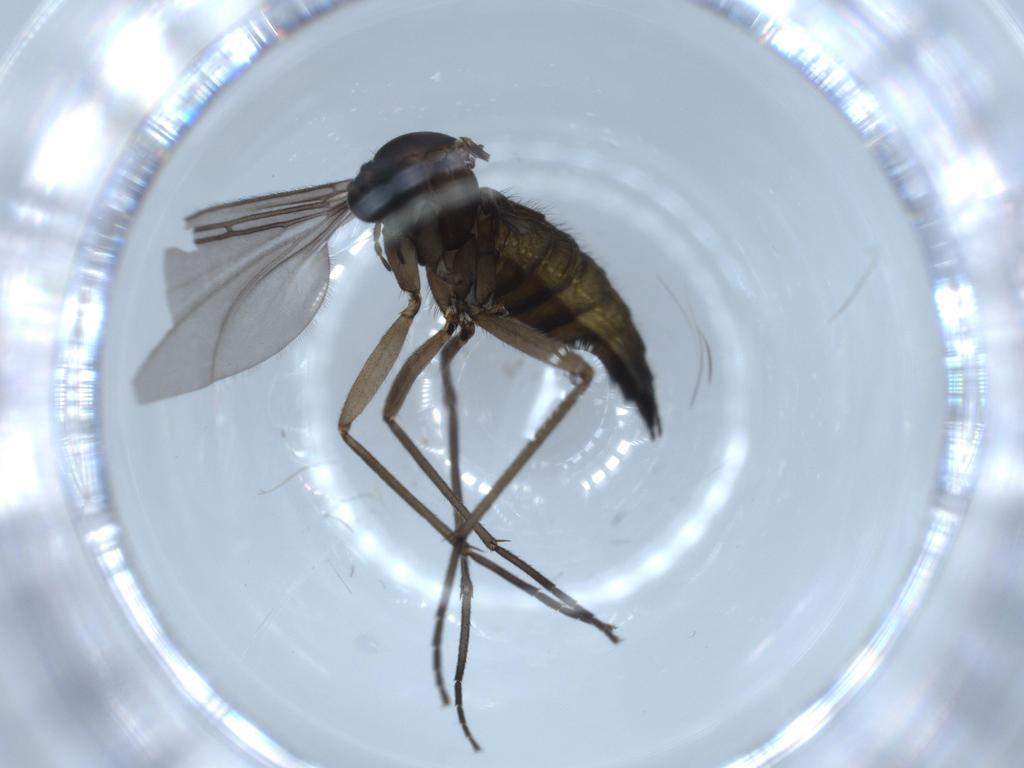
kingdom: Animalia
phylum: Arthropoda
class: Insecta
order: Diptera
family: Sciaridae
